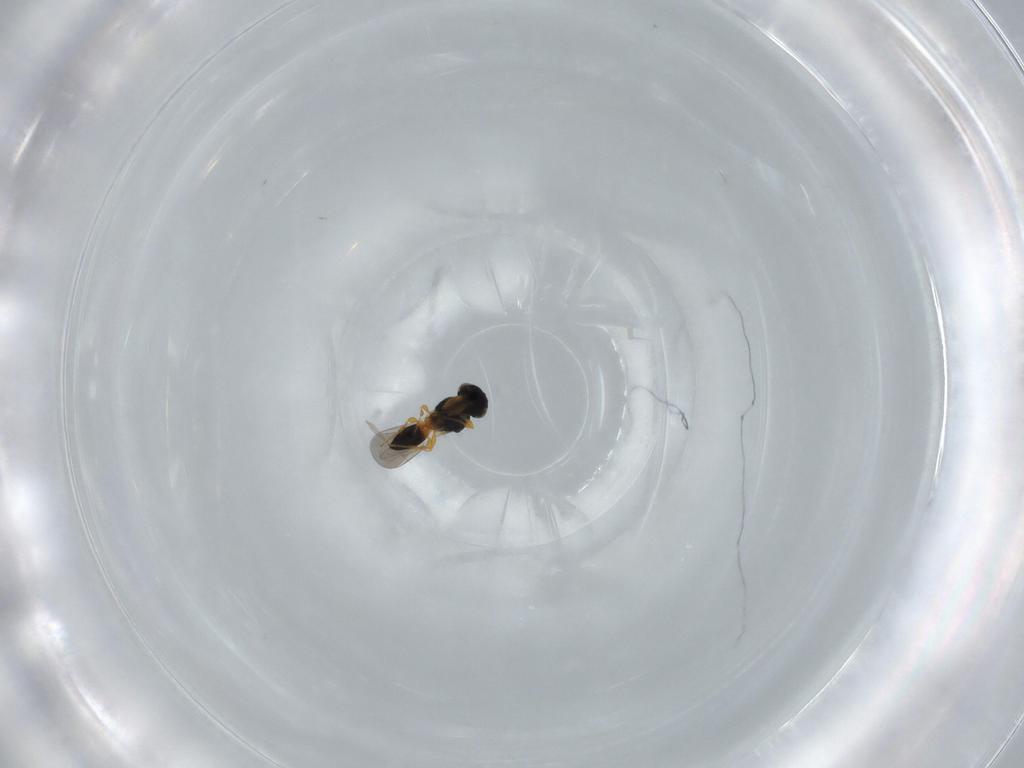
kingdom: Animalia
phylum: Arthropoda
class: Insecta
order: Hymenoptera
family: Platygastridae
